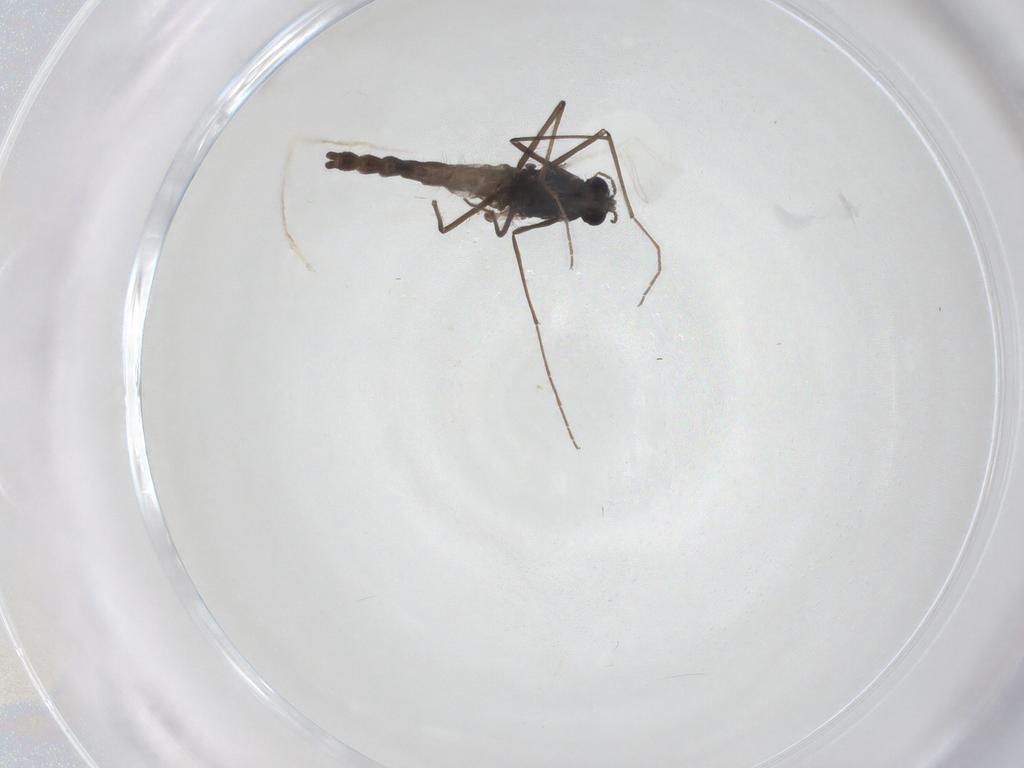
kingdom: Animalia
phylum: Arthropoda
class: Insecta
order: Diptera
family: Chironomidae
